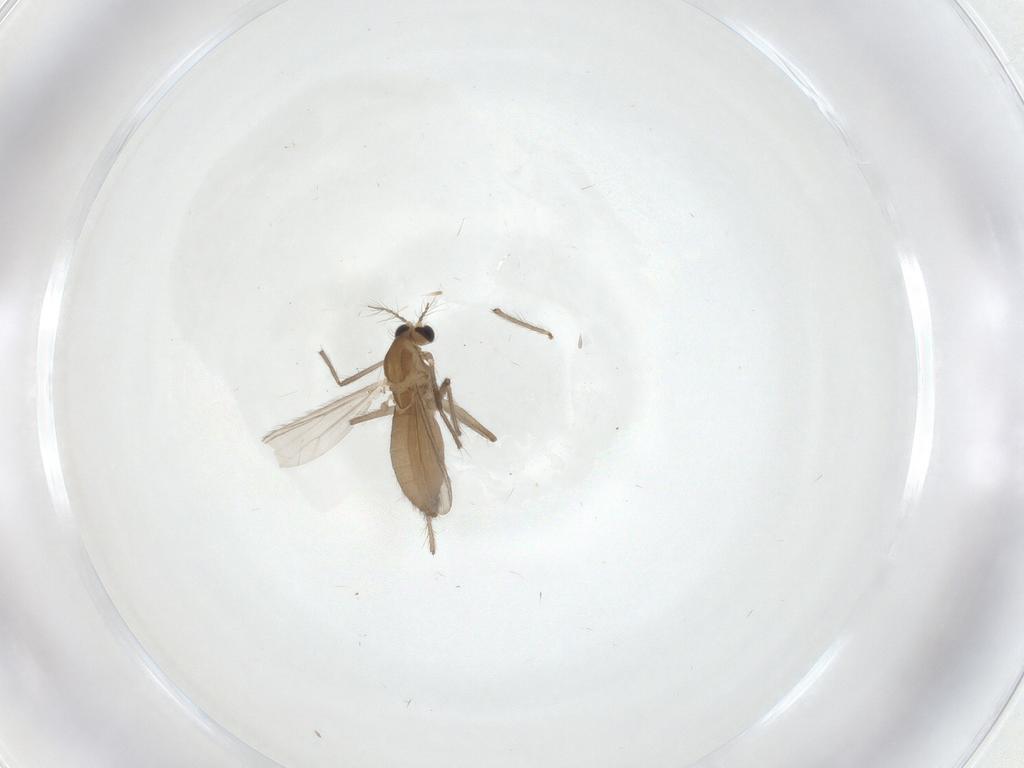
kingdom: Animalia
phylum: Arthropoda
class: Insecta
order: Diptera
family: Chironomidae
